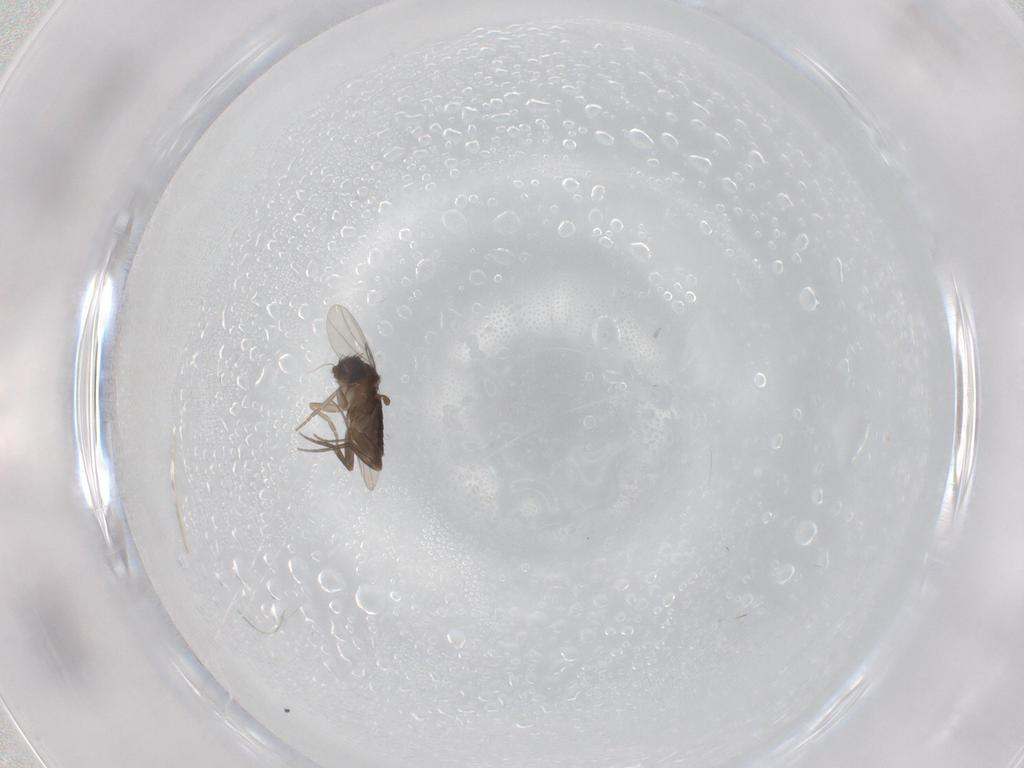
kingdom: Animalia
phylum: Arthropoda
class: Insecta
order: Diptera
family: Phoridae
